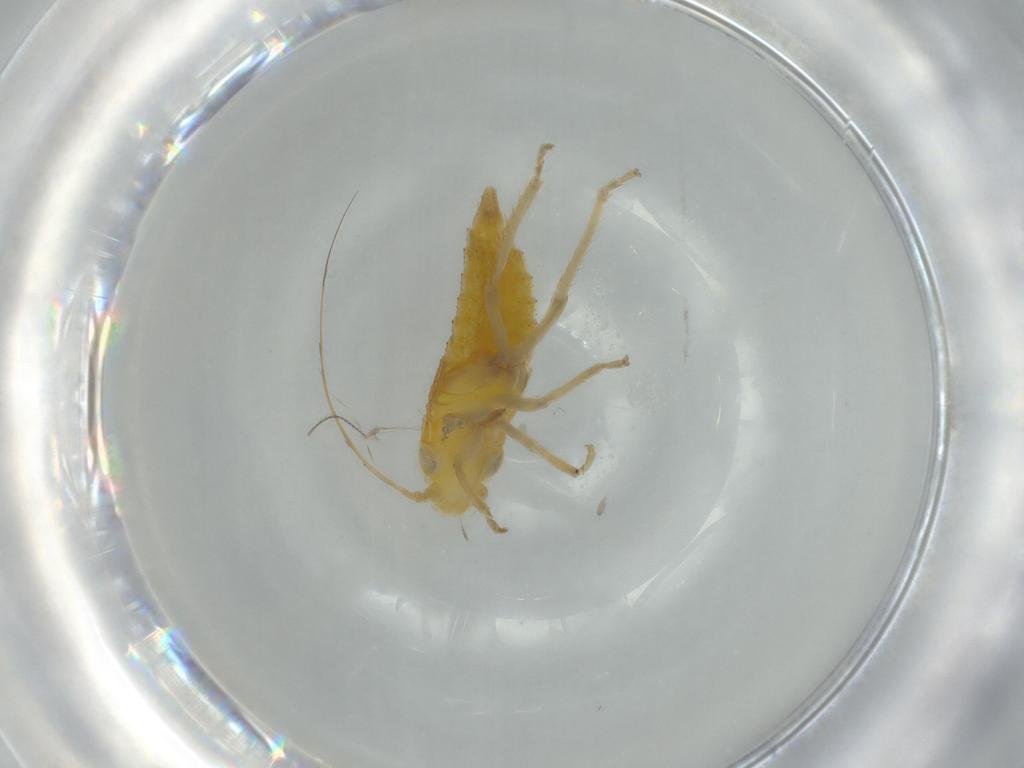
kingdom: Animalia
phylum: Arthropoda
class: Insecta
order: Hemiptera
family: Cicadellidae
